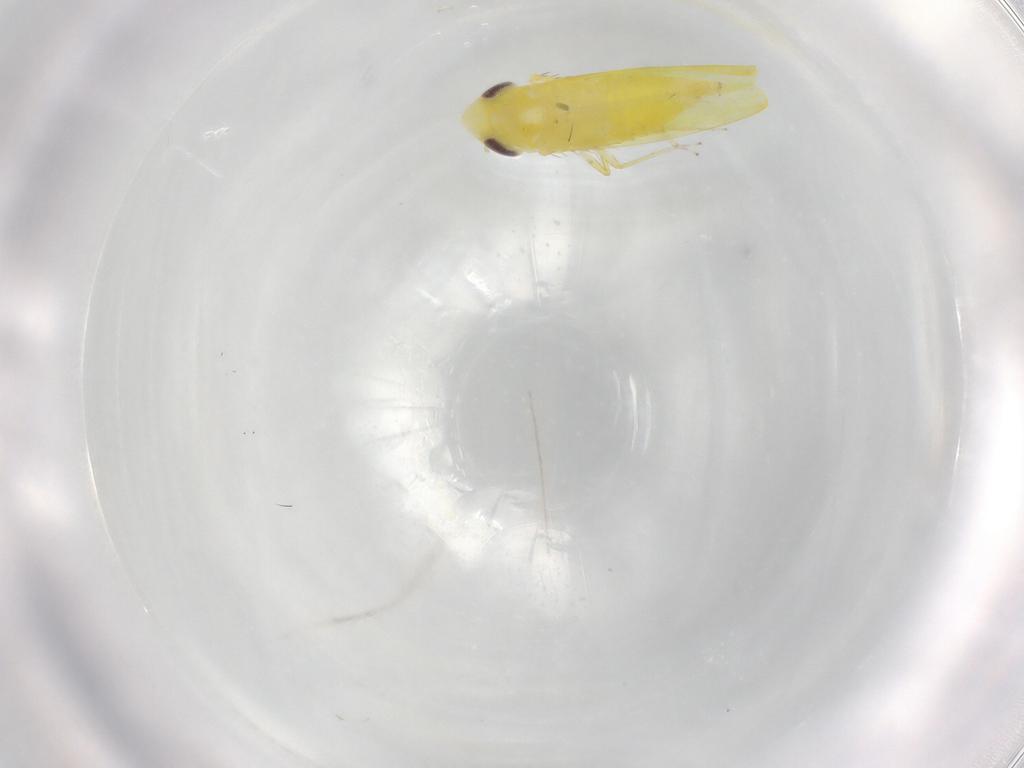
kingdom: Animalia
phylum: Arthropoda
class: Insecta
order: Hemiptera
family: Cicadellidae
